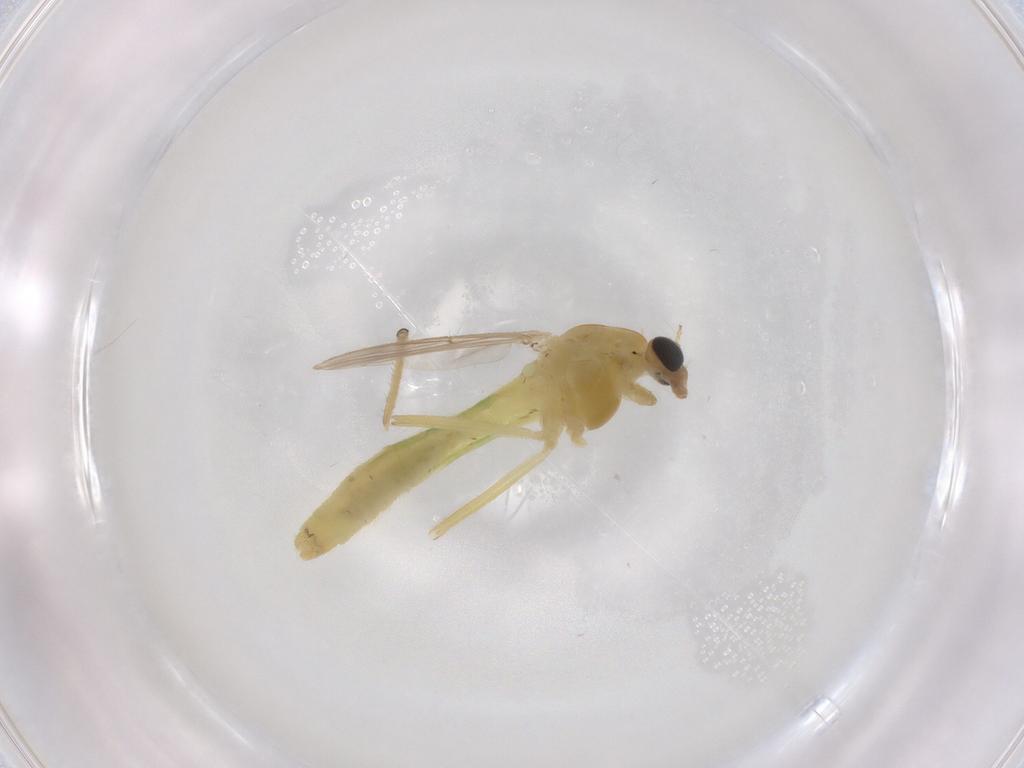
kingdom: Animalia
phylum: Arthropoda
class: Insecta
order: Diptera
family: Chironomidae
